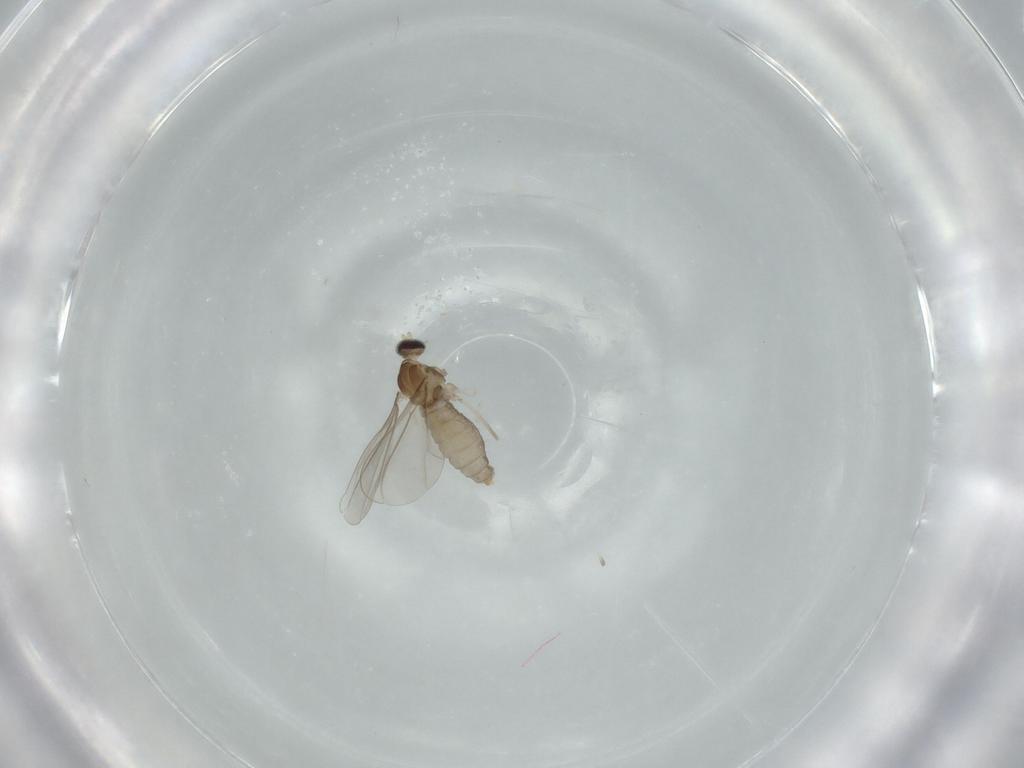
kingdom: Animalia
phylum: Arthropoda
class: Insecta
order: Diptera
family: Cecidomyiidae
